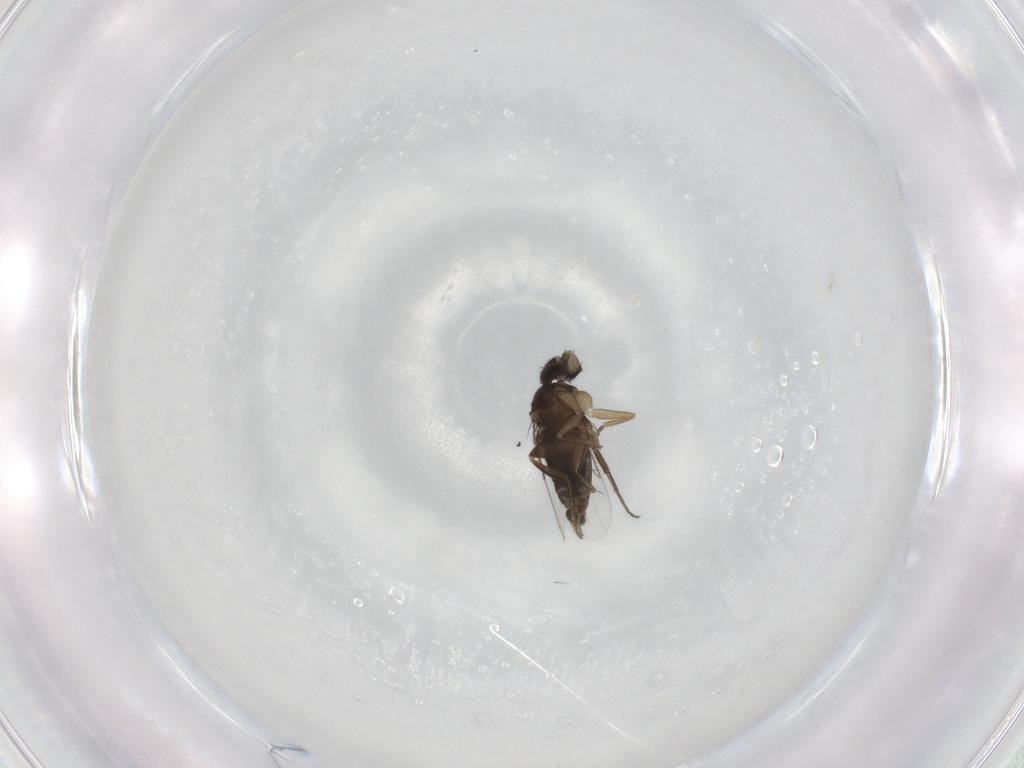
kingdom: Animalia
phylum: Arthropoda
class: Insecta
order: Diptera
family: Phoridae
